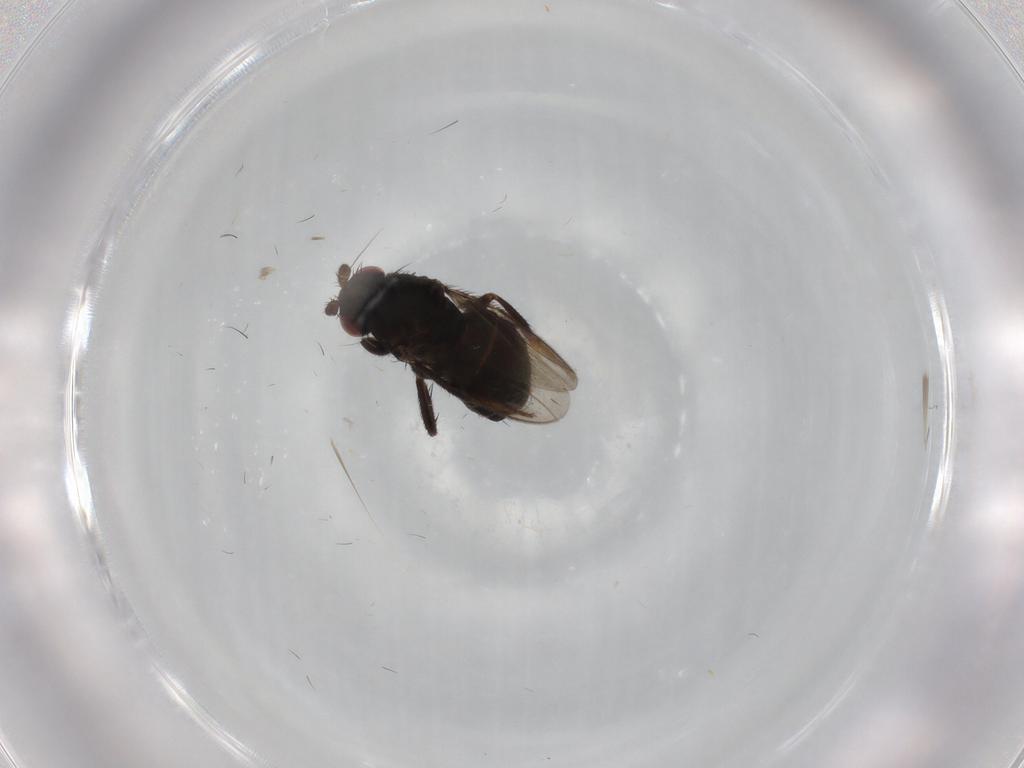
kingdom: Animalia
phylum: Arthropoda
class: Insecta
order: Diptera
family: Sphaeroceridae
